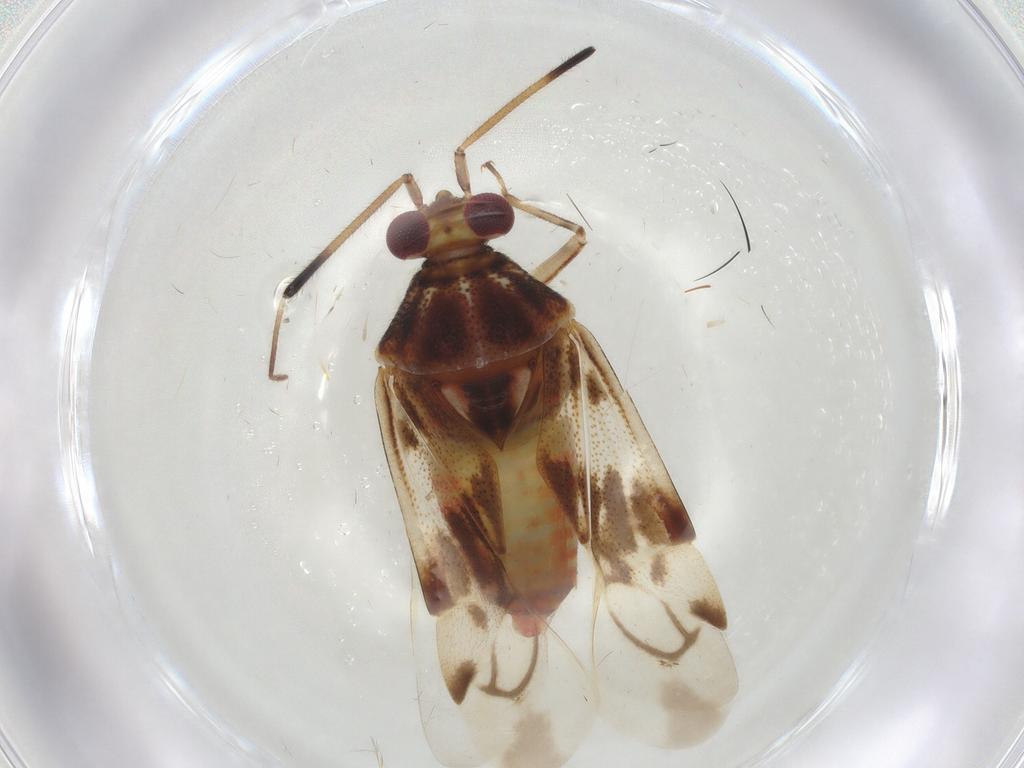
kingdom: Animalia
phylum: Arthropoda
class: Insecta
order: Hemiptera
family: Miridae
